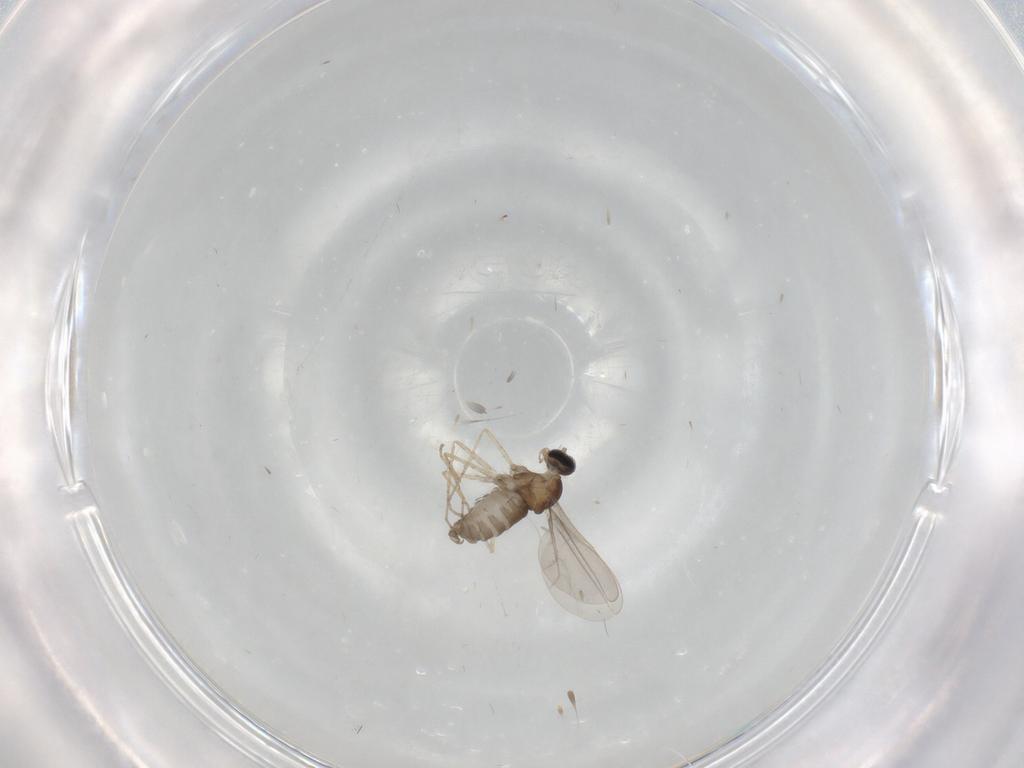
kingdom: Animalia
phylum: Arthropoda
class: Insecta
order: Diptera
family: Cecidomyiidae
